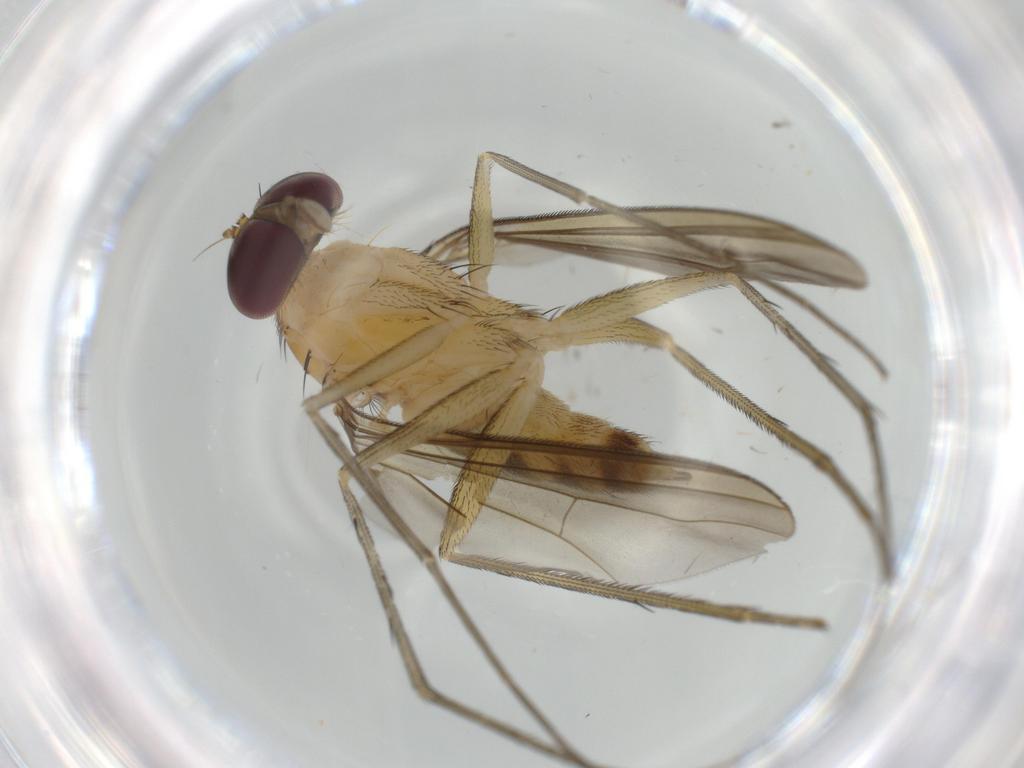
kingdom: Animalia
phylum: Arthropoda
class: Insecta
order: Diptera
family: Dolichopodidae
